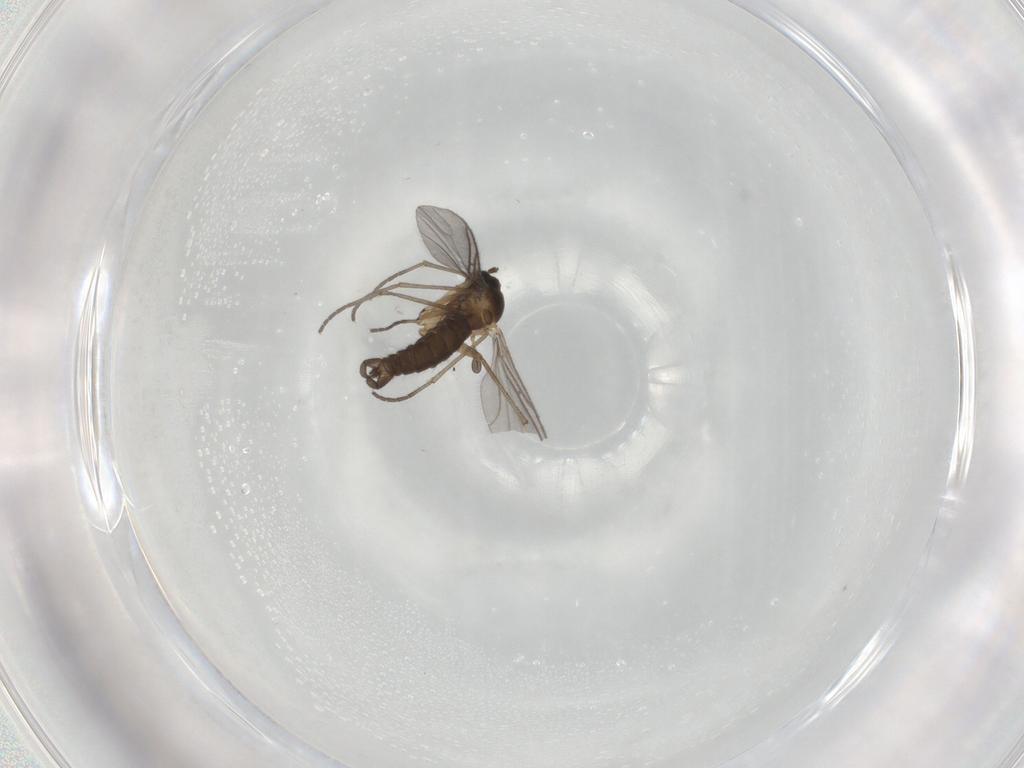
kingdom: Animalia
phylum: Arthropoda
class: Insecta
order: Diptera
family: Sciaridae
